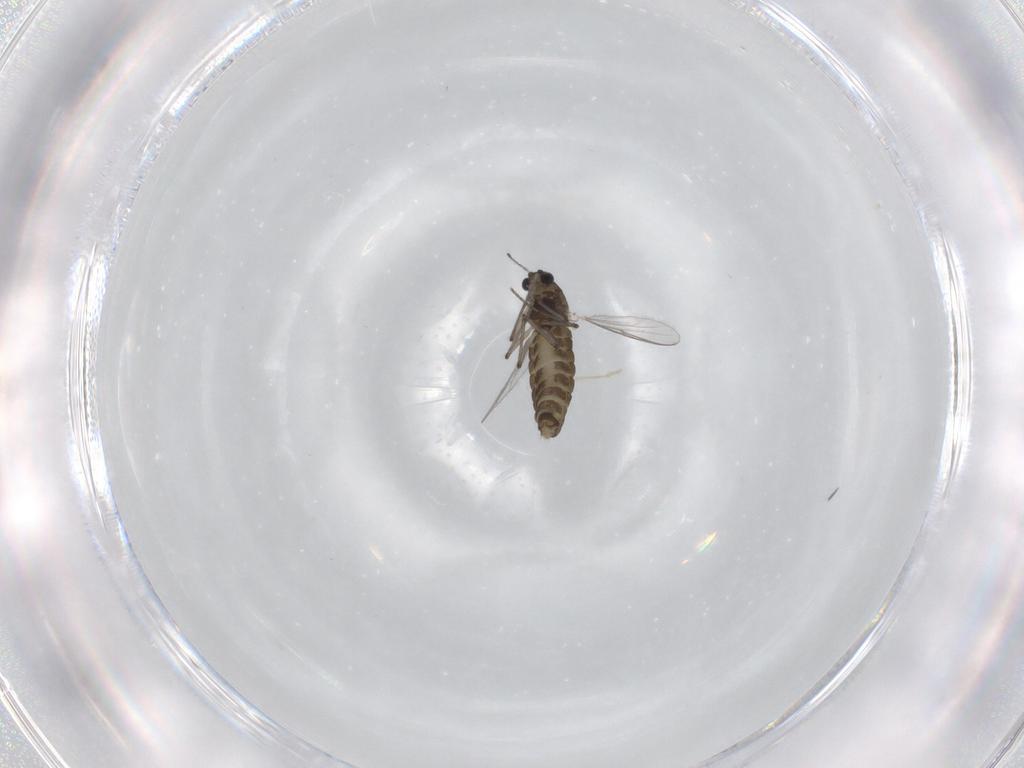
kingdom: Animalia
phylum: Arthropoda
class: Insecta
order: Diptera
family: Chironomidae
